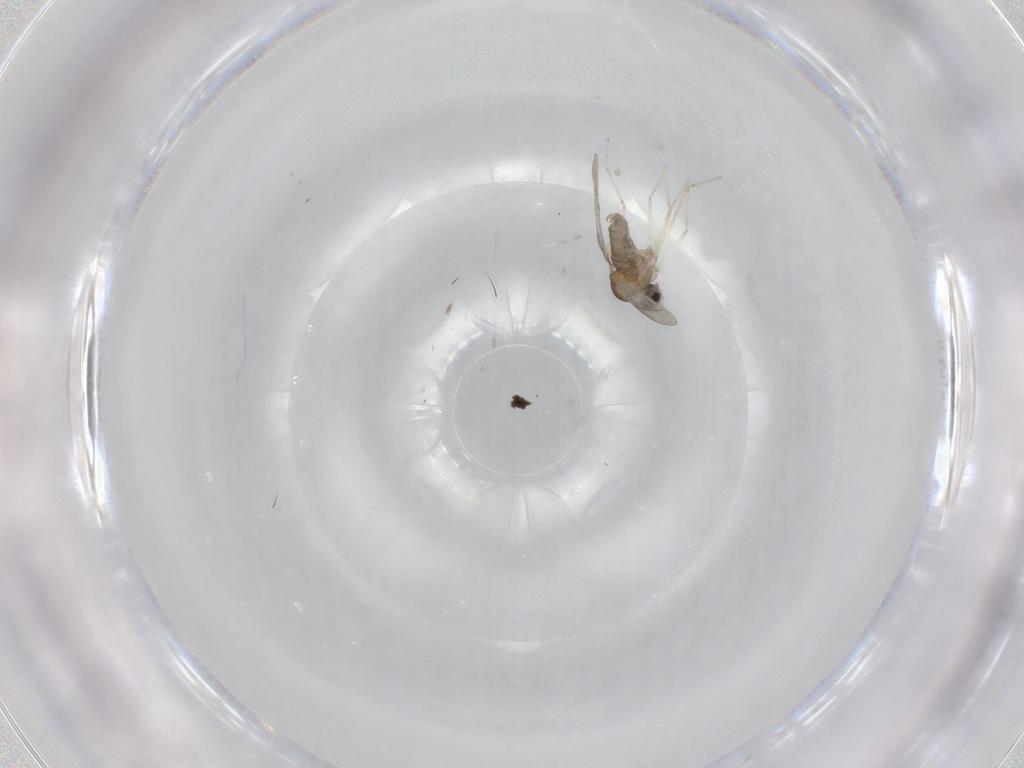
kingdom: Animalia
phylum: Arthropoda
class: Insecta
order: Diptera
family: Cecidomyiidae
